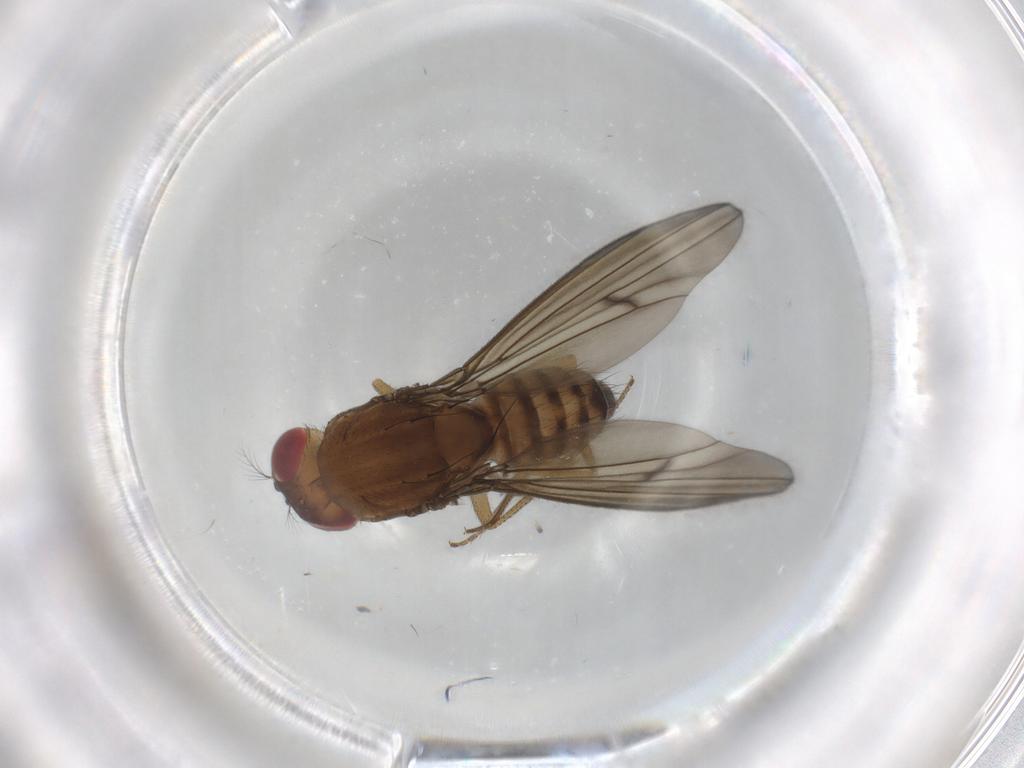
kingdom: Animalia
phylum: Arthropoda
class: Insecta
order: Diptera
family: Drosophilidae
